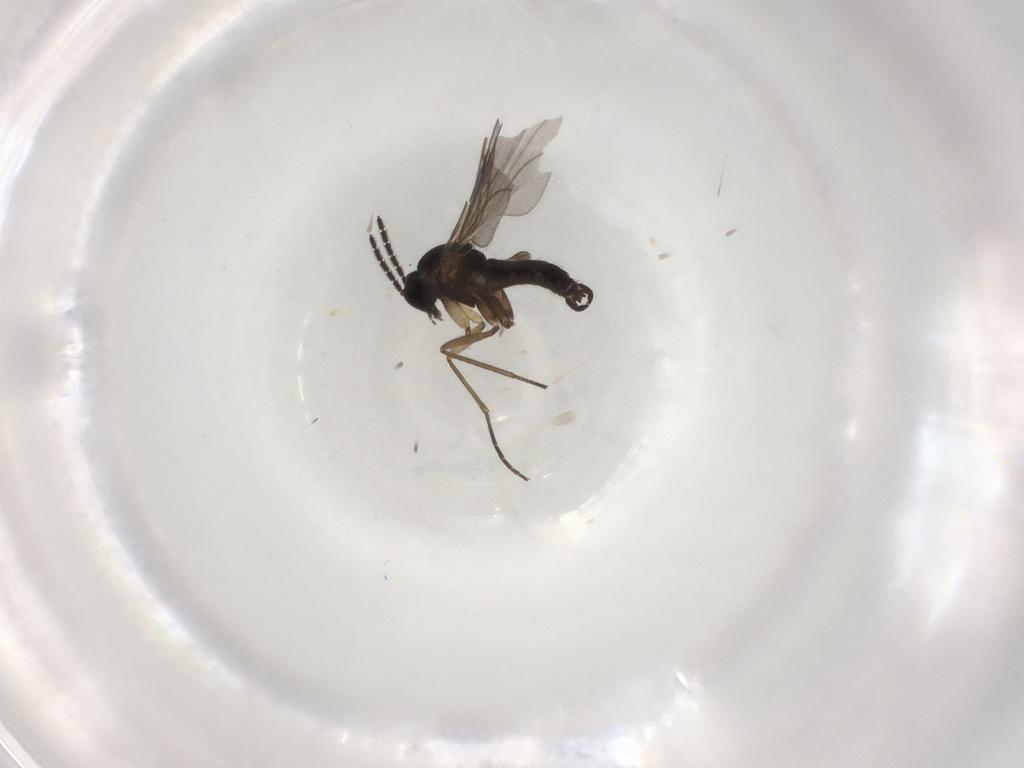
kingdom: Animalia
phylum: Arthropoda
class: Insecta
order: Diptera
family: Sciaridae
